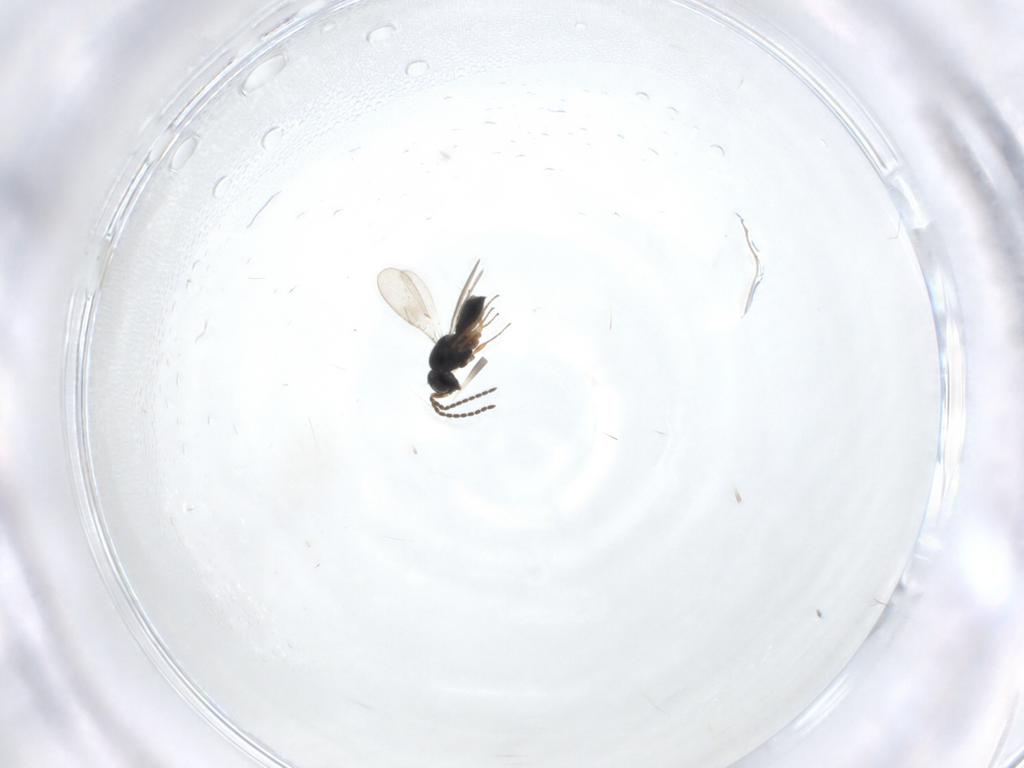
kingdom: Animalia
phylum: Arthropoda
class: Insecta
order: Hymenoptera
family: Scelionidae
